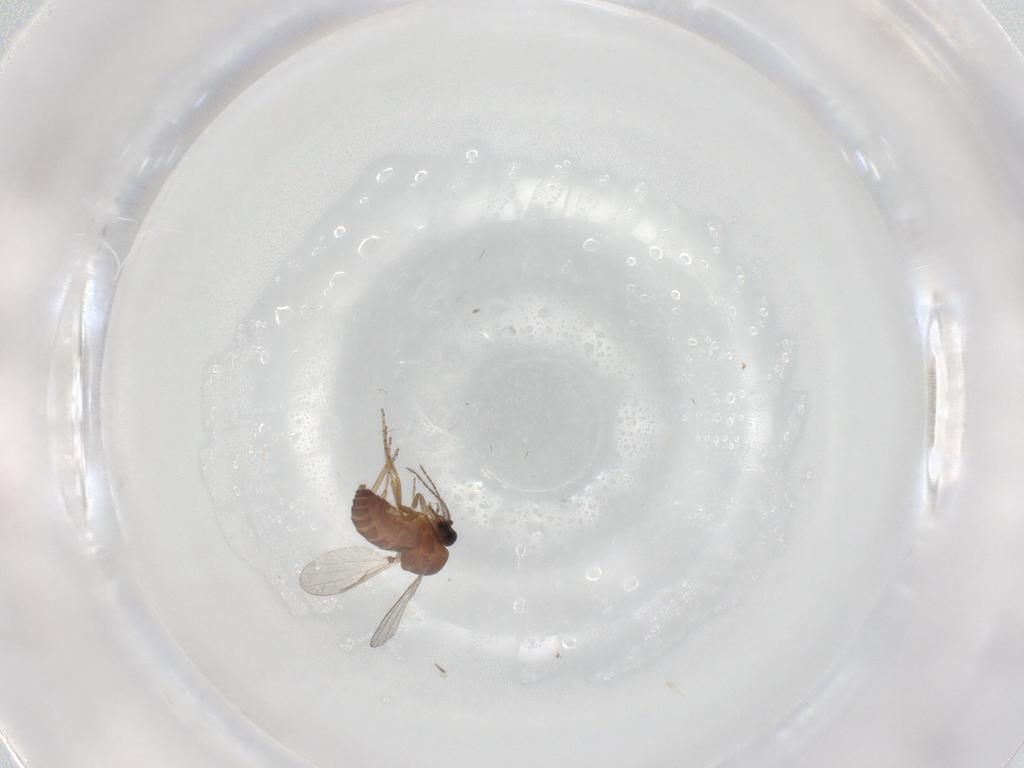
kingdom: Animalia
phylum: Arthropoda
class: Insecta
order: Diptera
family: Ceratopogonidae
